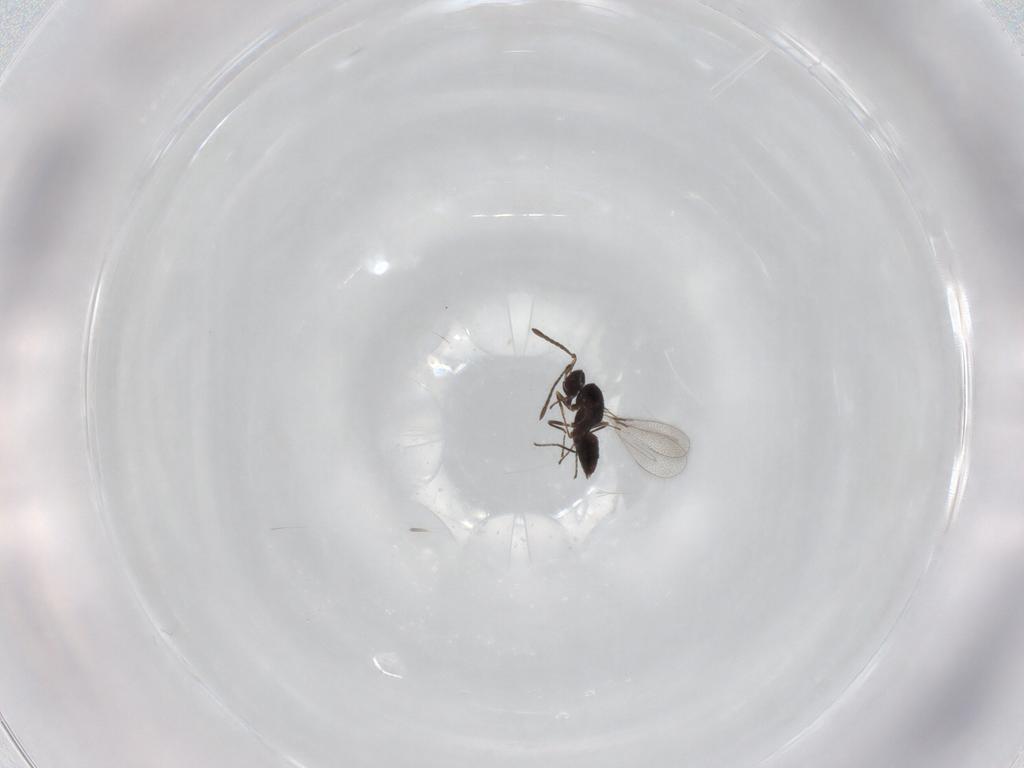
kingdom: Animalia
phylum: Arthropoda
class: Insecta
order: Hymenoptera
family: Mymaridae
